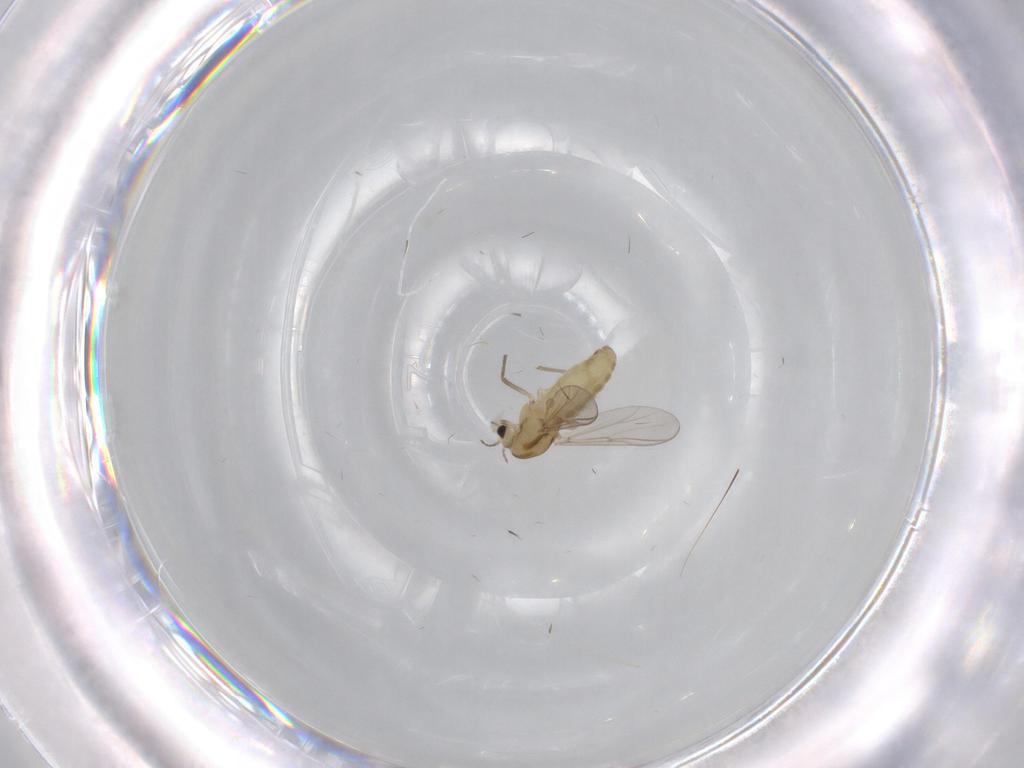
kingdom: Animalia
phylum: Arthropoda
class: Insecta
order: Diptera
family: Chironomidae
